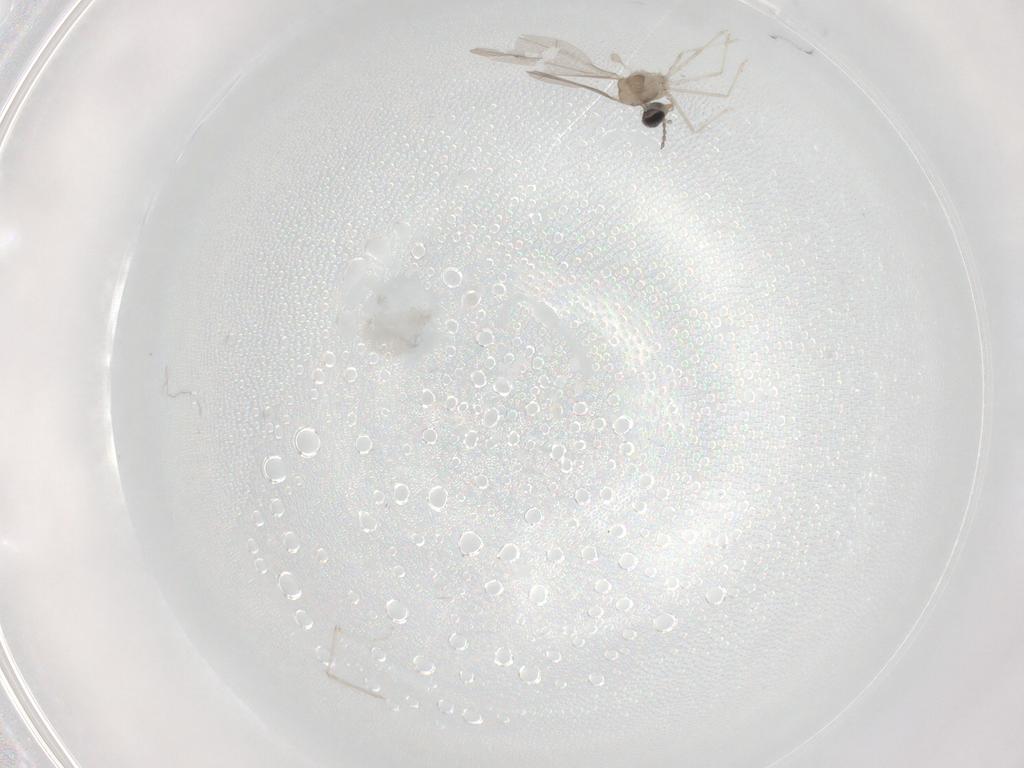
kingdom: Animalia
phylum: Arthropoda
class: Insecta
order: Diptera
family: Cecidomyiidae
